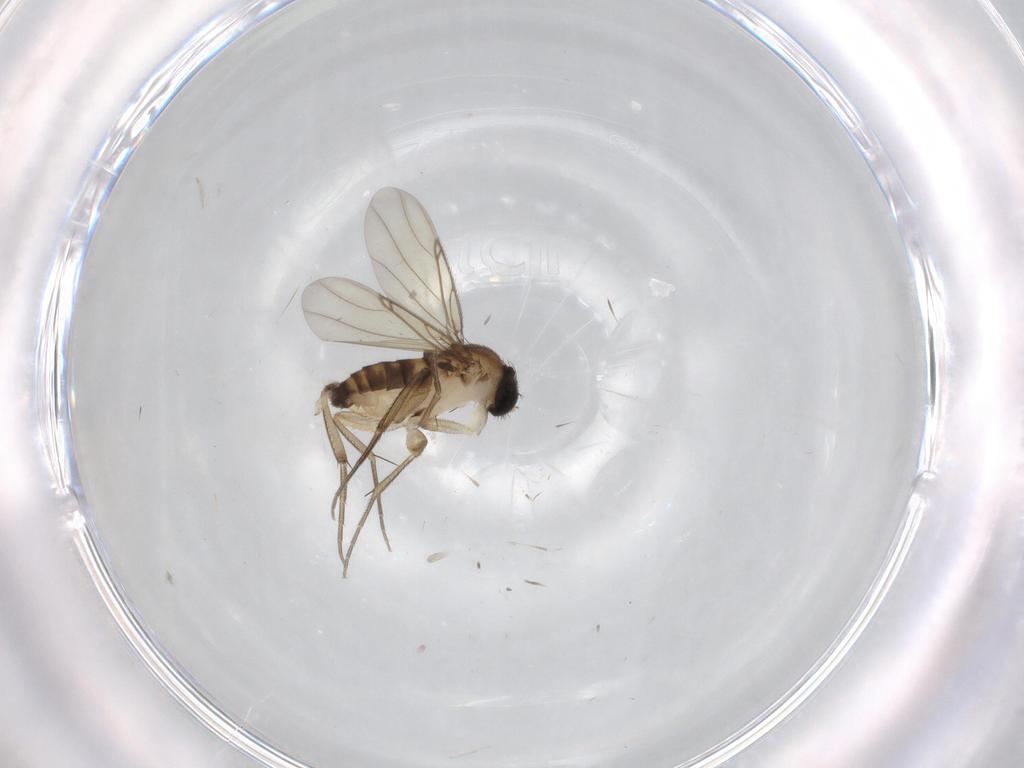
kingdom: Animalia
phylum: Arthropoda
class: Insecta
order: Diptera
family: Phoridae
